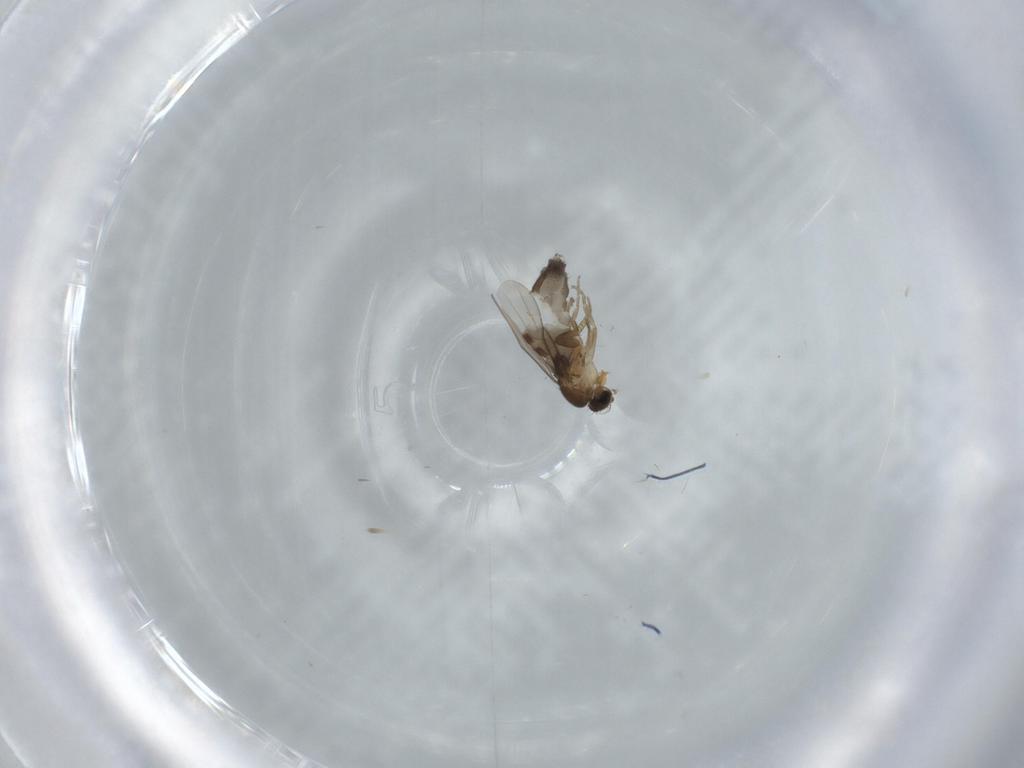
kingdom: Animalia
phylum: Arthropoda
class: Insecta
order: Diptera
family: Phoridae
